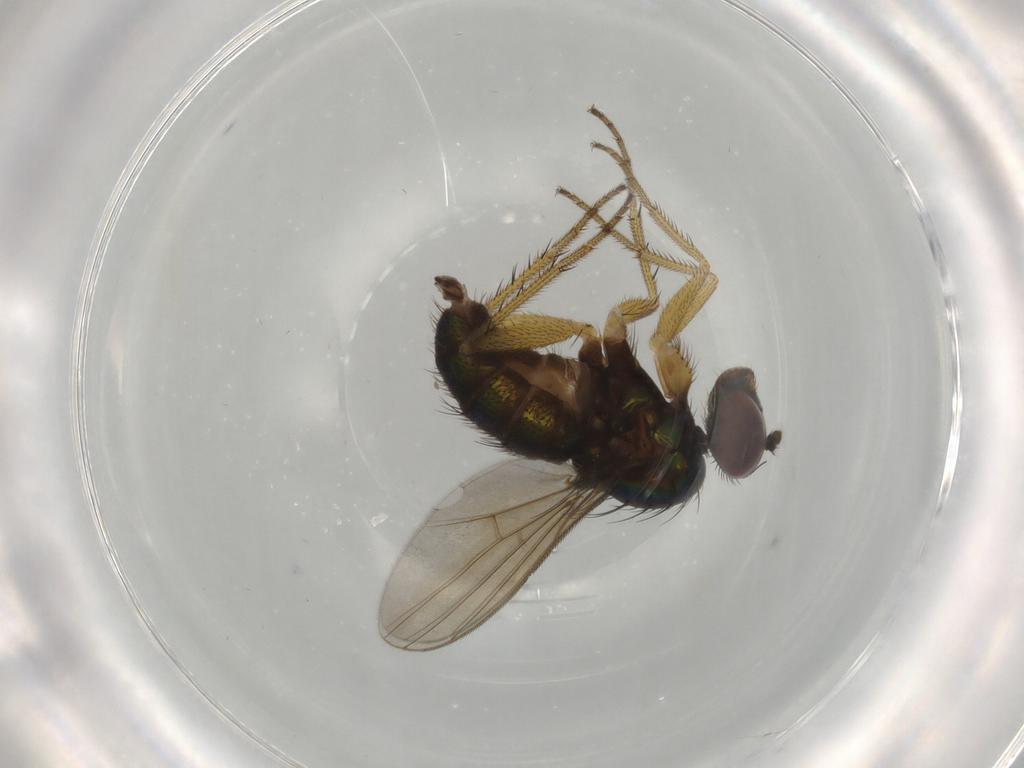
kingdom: Animalia
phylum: Arthropoda
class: Insecta
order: Diptera
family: Dolichopodidae
